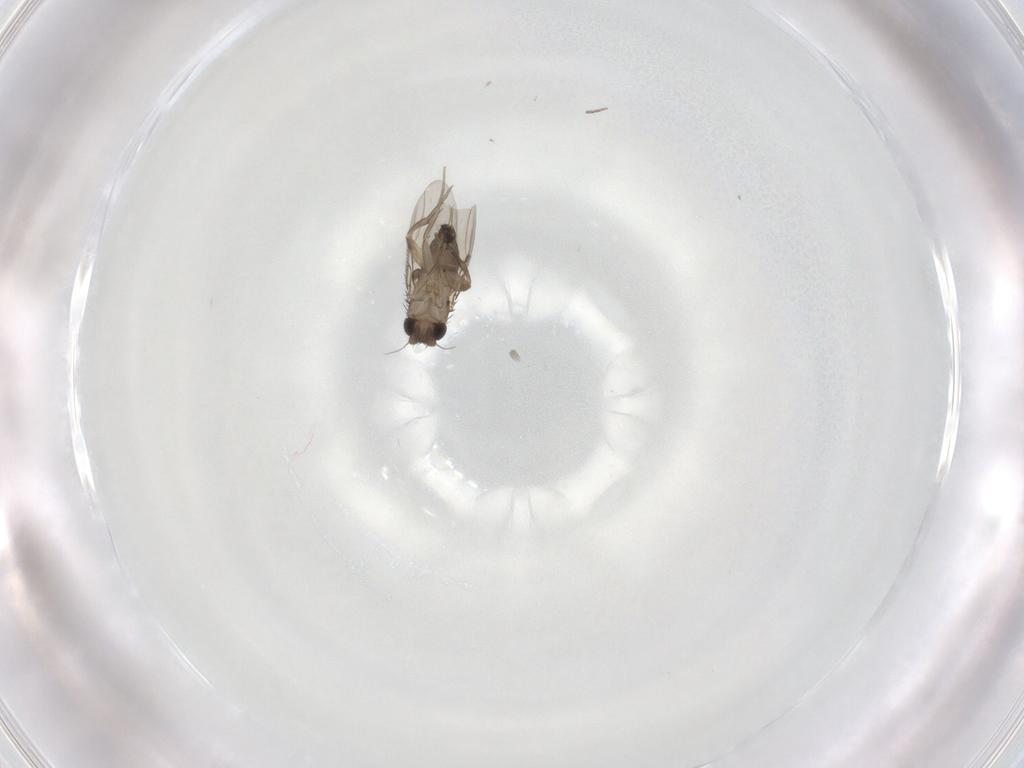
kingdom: Animalia
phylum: Arthropoda
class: Insecta
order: Diptera
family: Phoridae
